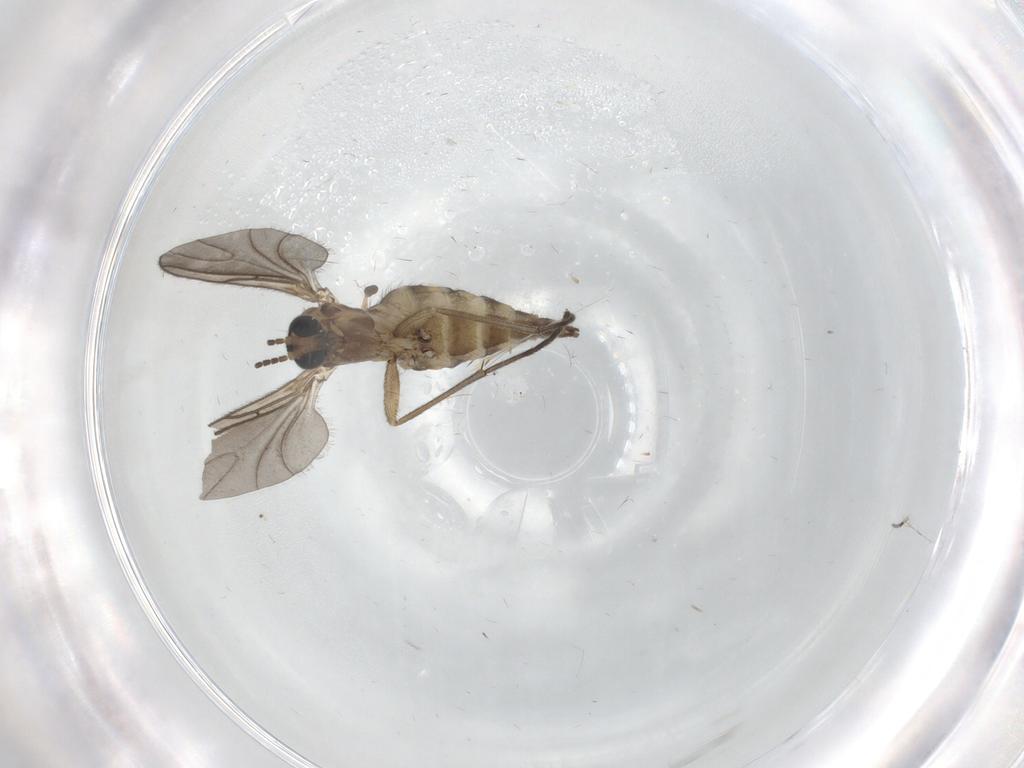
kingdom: Animalia
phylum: Arthropoda
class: Insecta
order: Diptera
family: Sciaridae
